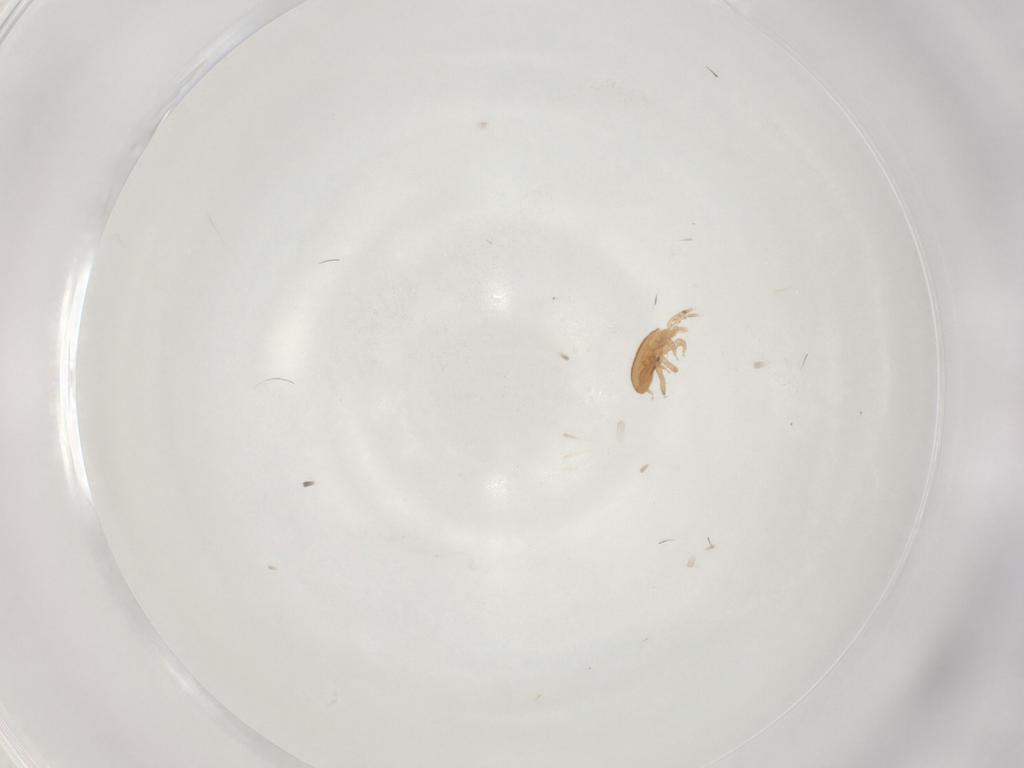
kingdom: Animalia
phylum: Arthropoda
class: Arachnida
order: Mesostigmata
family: Blattisociidae
